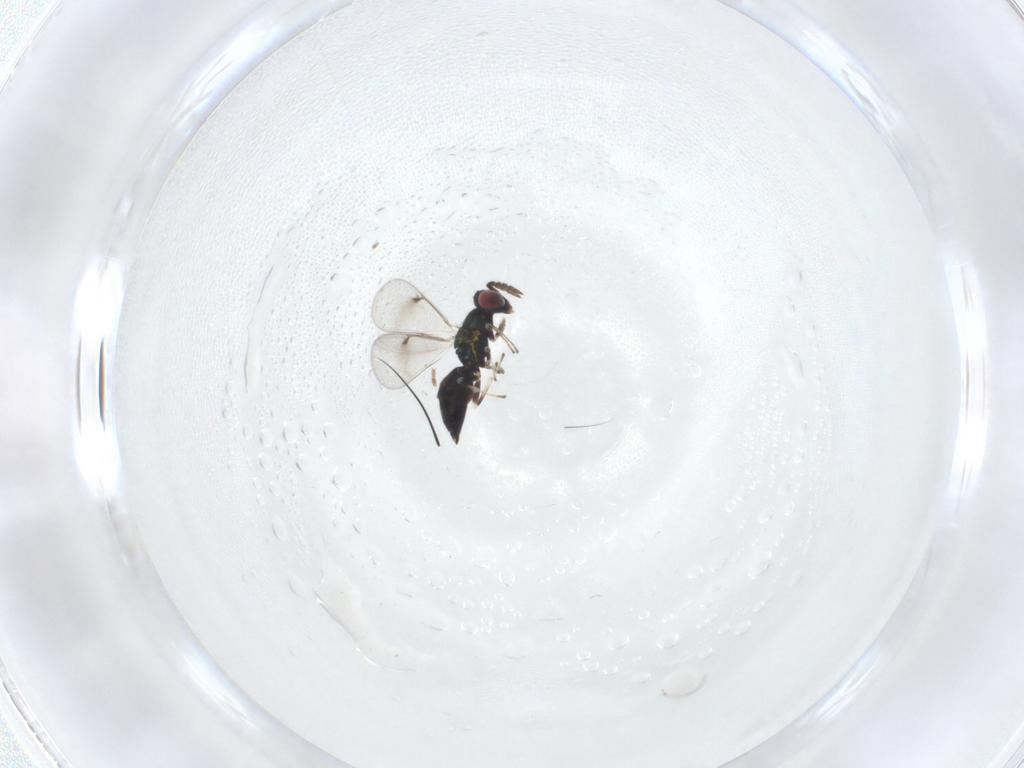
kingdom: Animalia
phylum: Arthropoda
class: Insecta
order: Hymenoptera
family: Eulophidae
